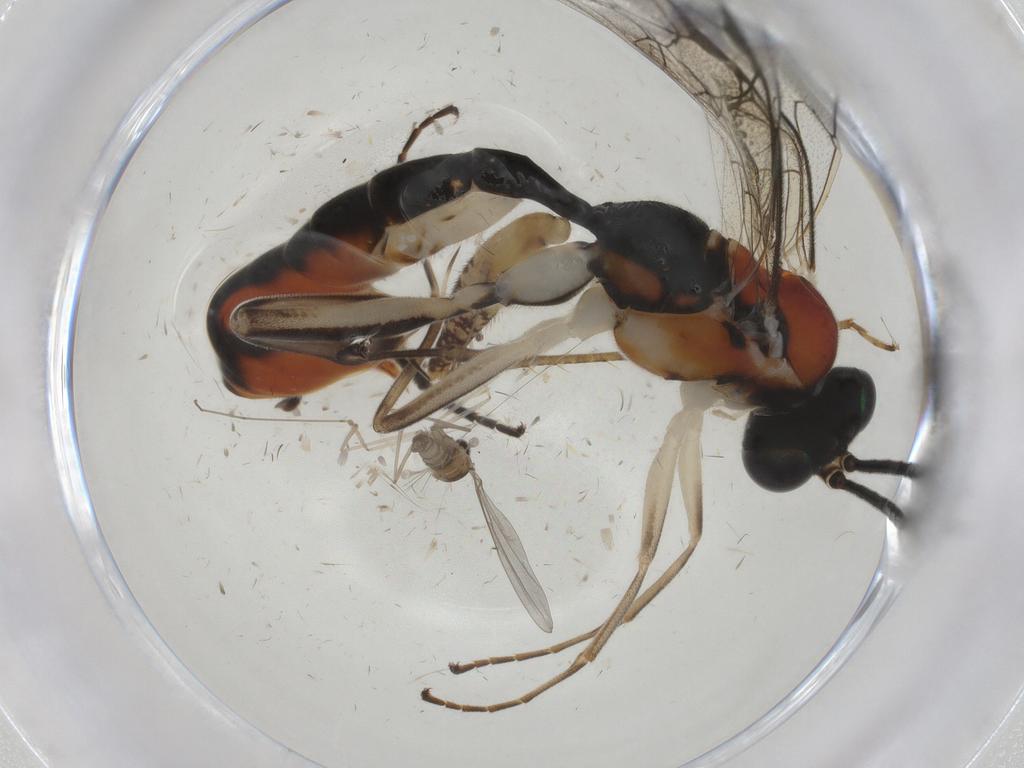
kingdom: Animalia
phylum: Arthropoda
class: Insecta
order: Diptera
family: Bibionidae
